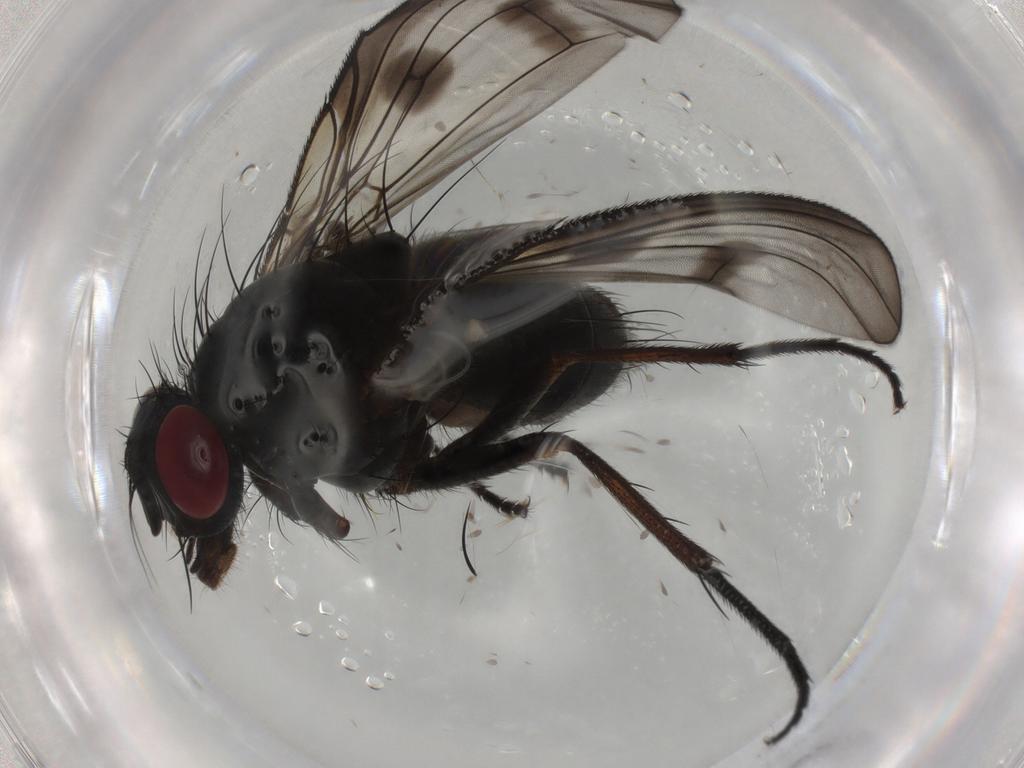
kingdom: Animalia
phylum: Arthropoda
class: Insecta
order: Diptera
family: Muscidae
